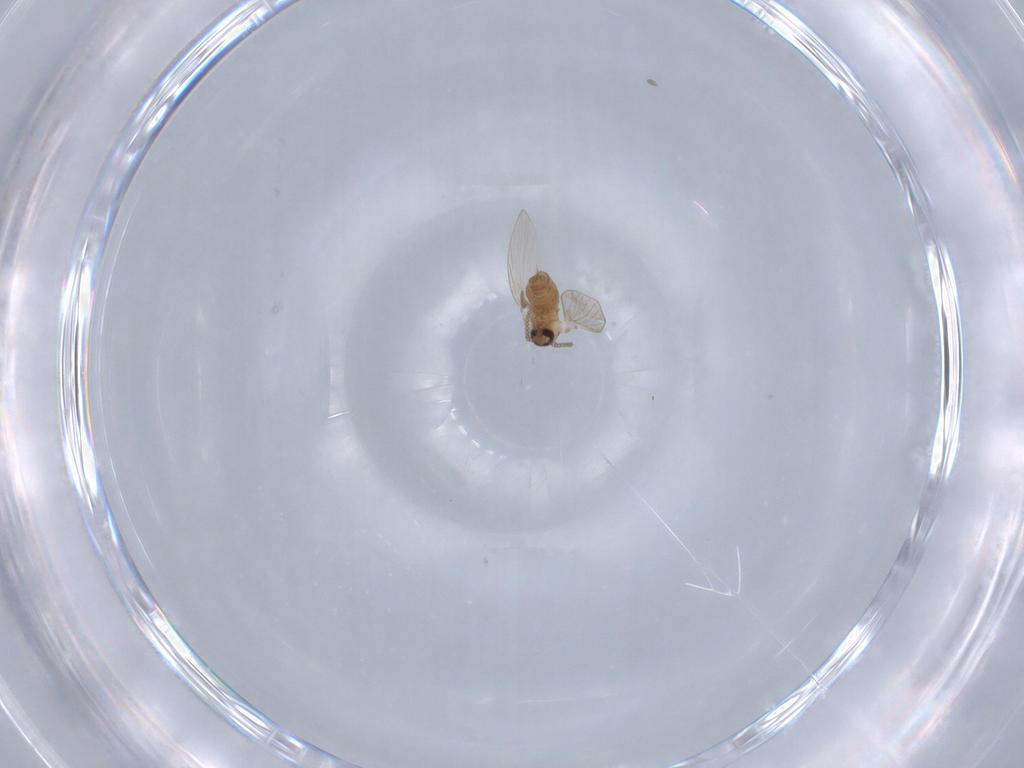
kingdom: Animalia
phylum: Arthropoda
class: Insecta
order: Diptera
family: Psychodidae
